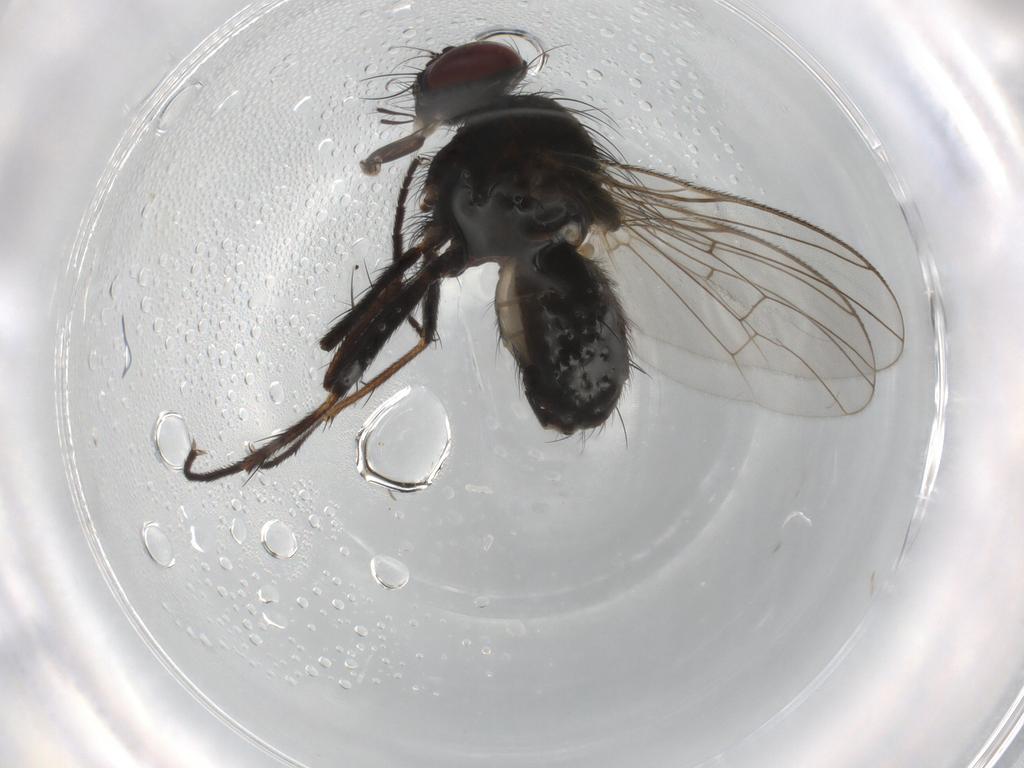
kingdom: Animalia
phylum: Arthropoda
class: Insecta
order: Diptera
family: Muscidae
